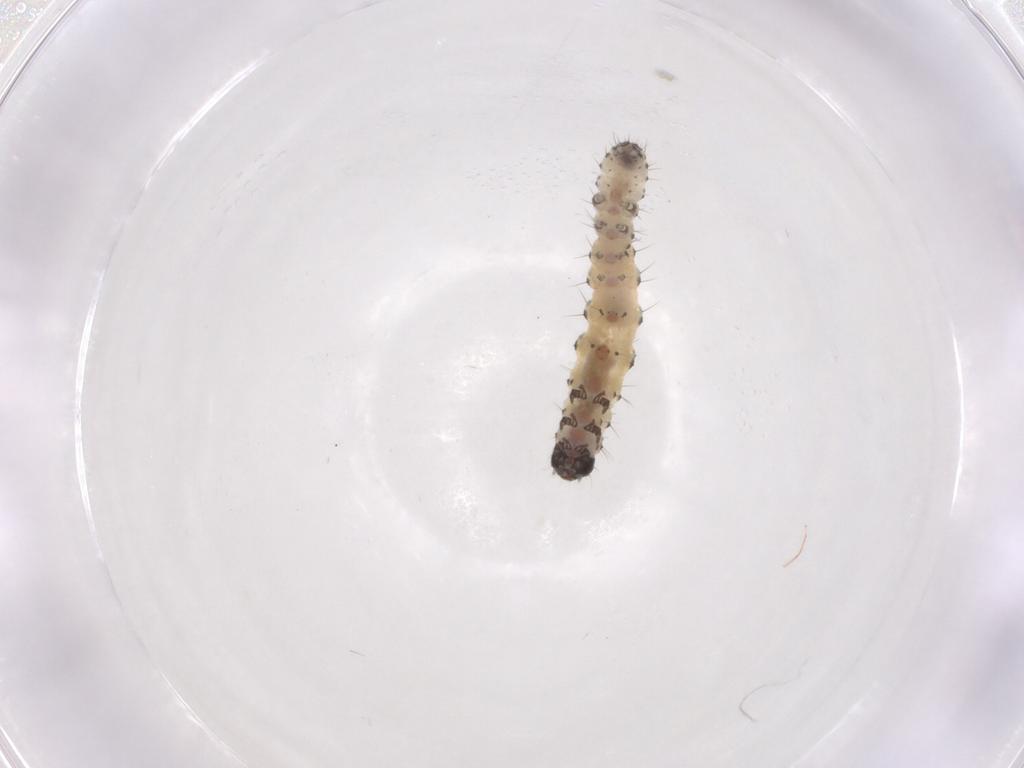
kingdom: Animalia
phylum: Arthropoda
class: Insecta
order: Lepidoptera
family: Noctuidae
